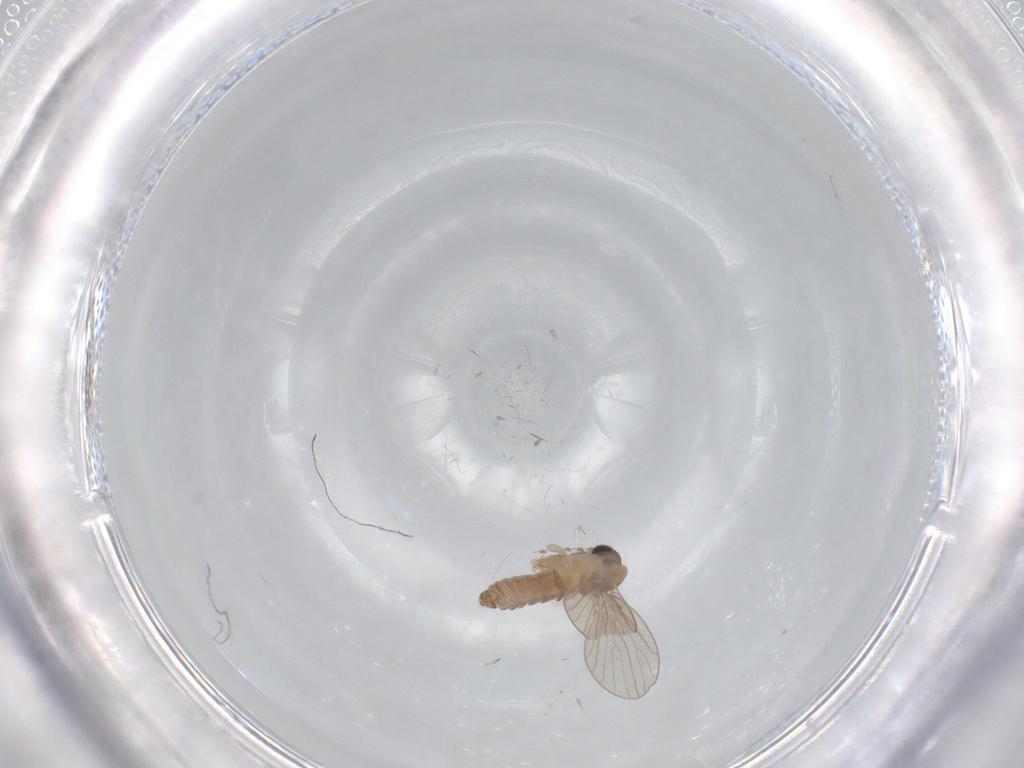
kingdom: Animalia
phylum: Arthropoda
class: Insecta
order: Diptera
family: Psychodidae
